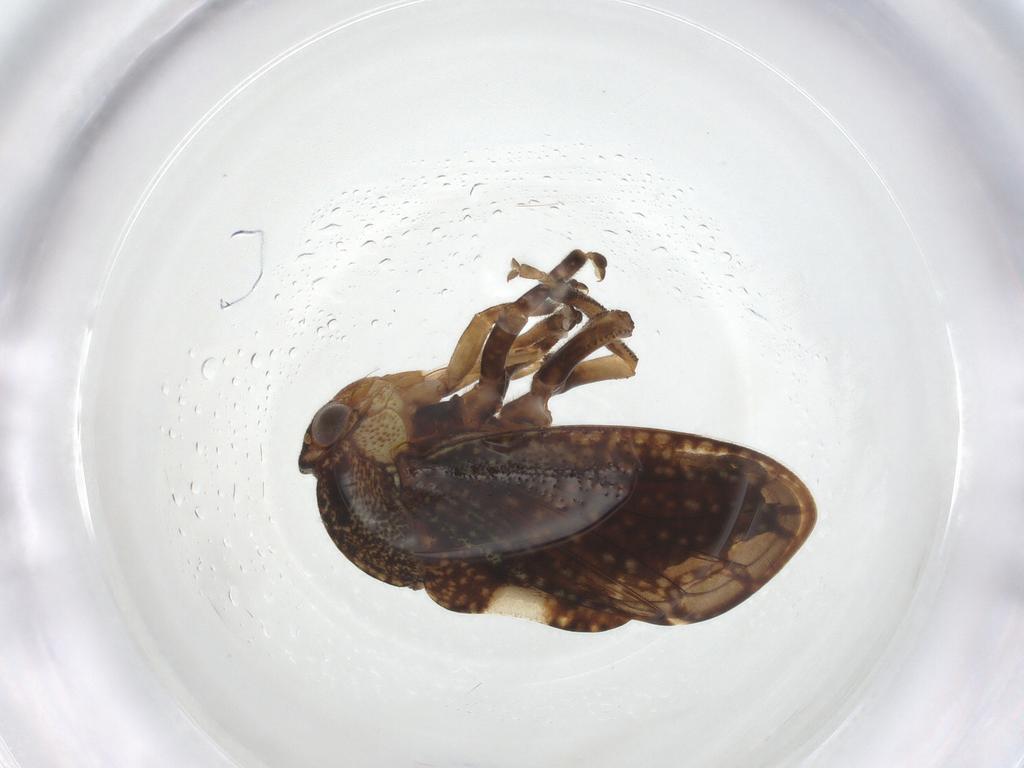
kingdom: Animalia
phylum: Arthropoda
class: Insecta
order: Hemiptera
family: Aetalionidae
